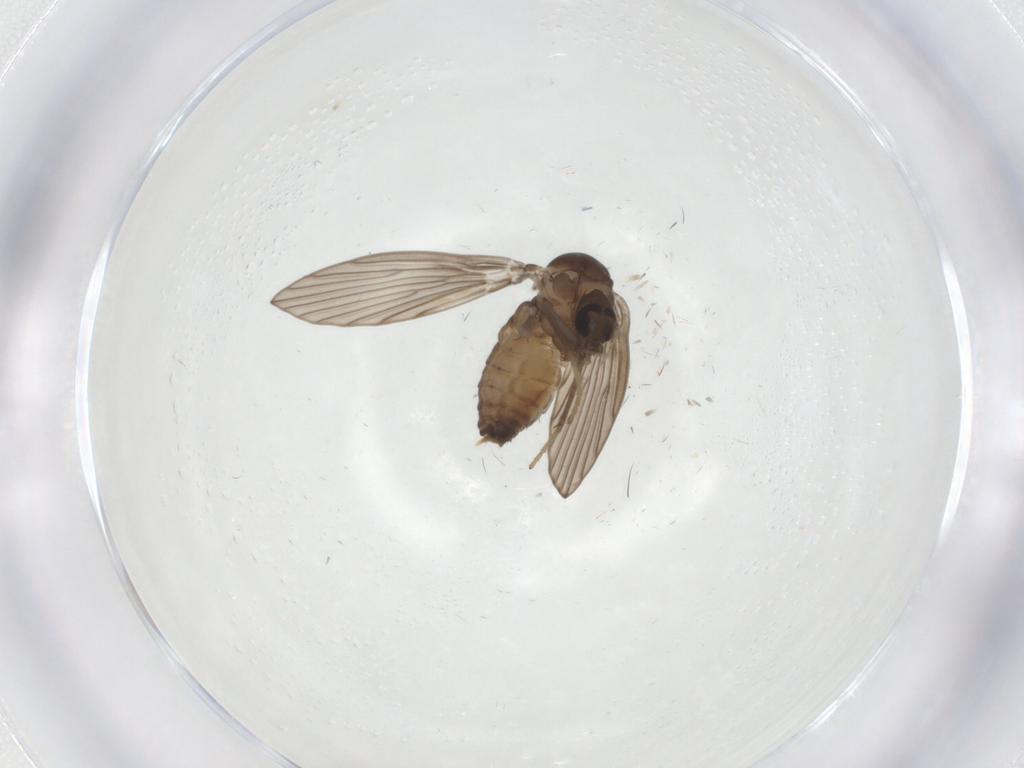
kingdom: Animalia
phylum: Arthropoda
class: Insecta
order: Diptera
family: Psychodidae
